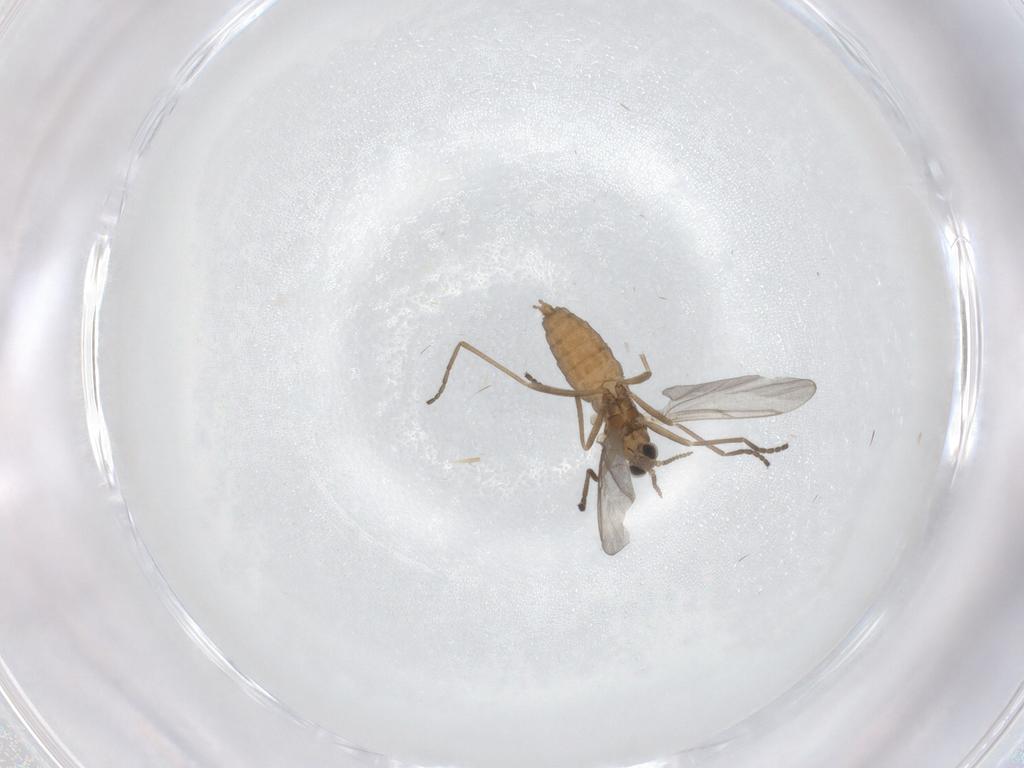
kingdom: Animalia
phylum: Arthropoda
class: Insecta
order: Diptera
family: Cecidomyiidae
